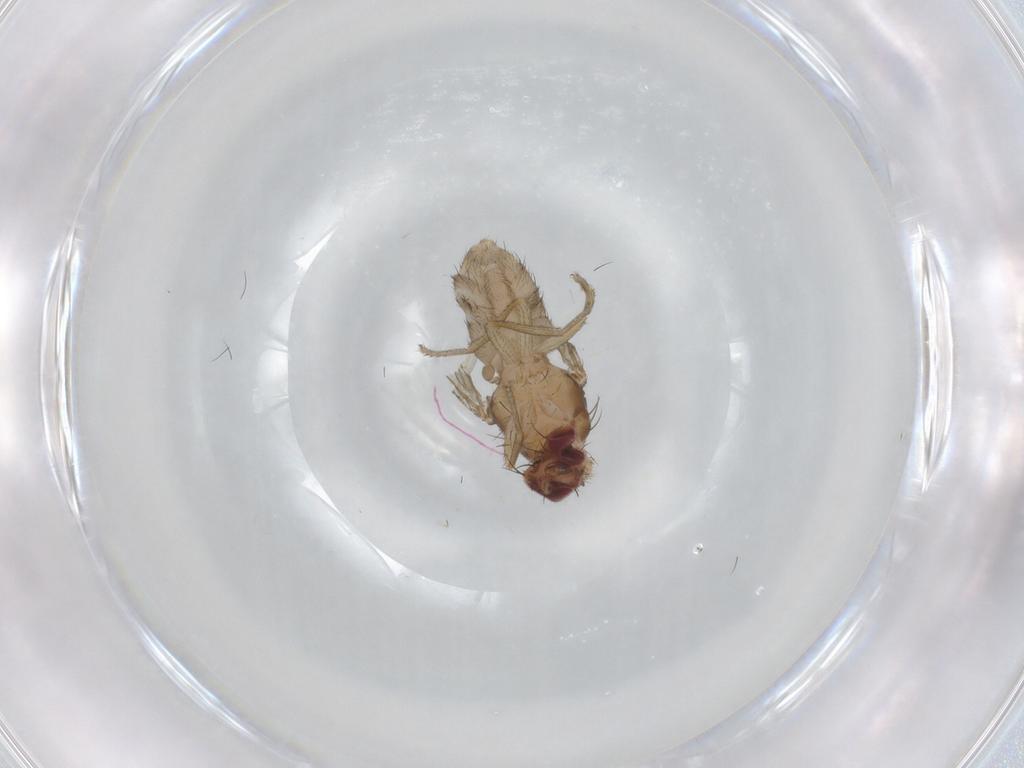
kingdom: Animalia
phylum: Arthropoda
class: Insecta
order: Diptera
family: Drosophilidae
